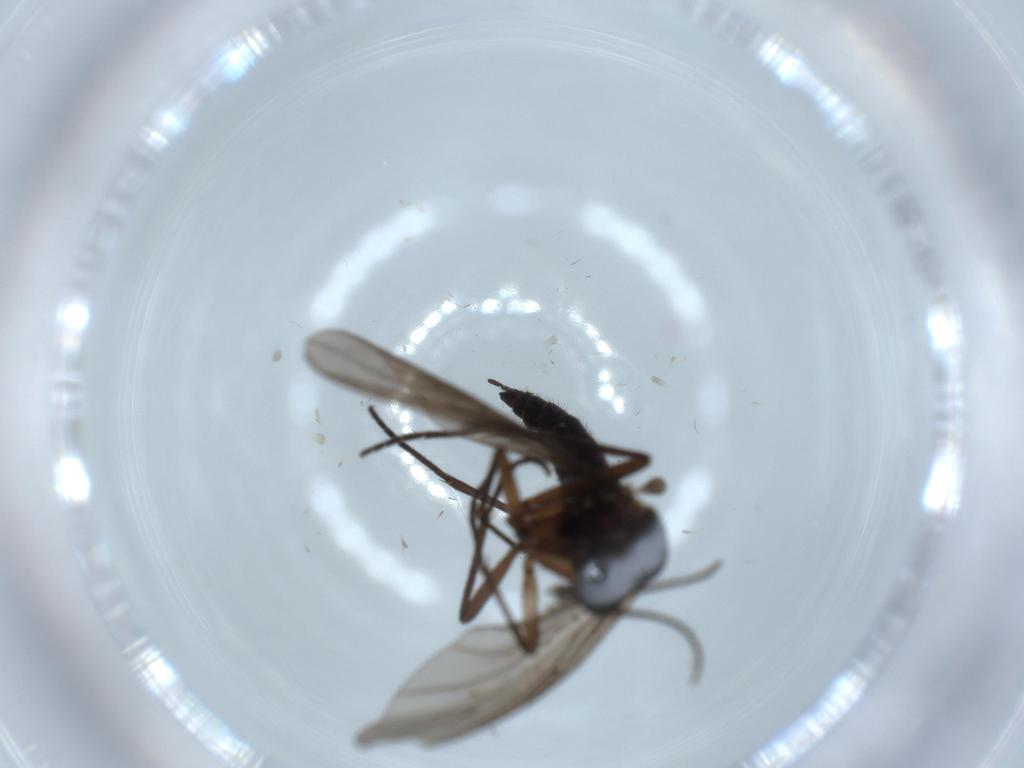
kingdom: Animalia
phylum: Arthropoda
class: Insecta
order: Diptera
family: Sciaridae
